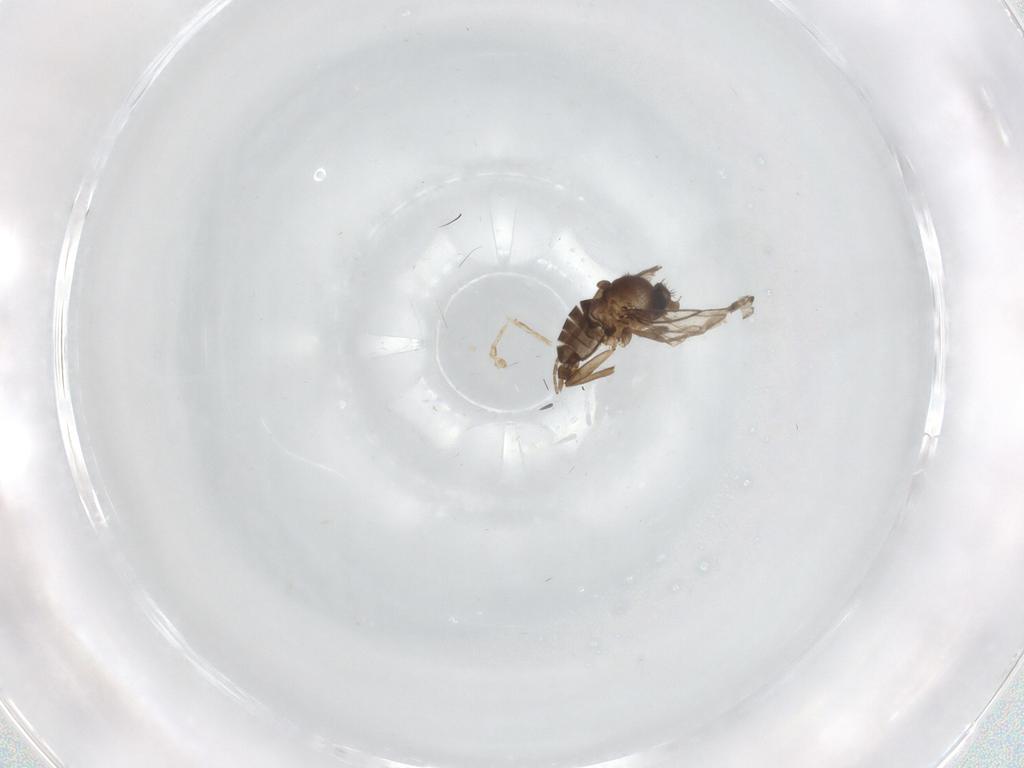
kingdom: Animalia
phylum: Arthropoda
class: Insecta
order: Diptera
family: Phoridae
